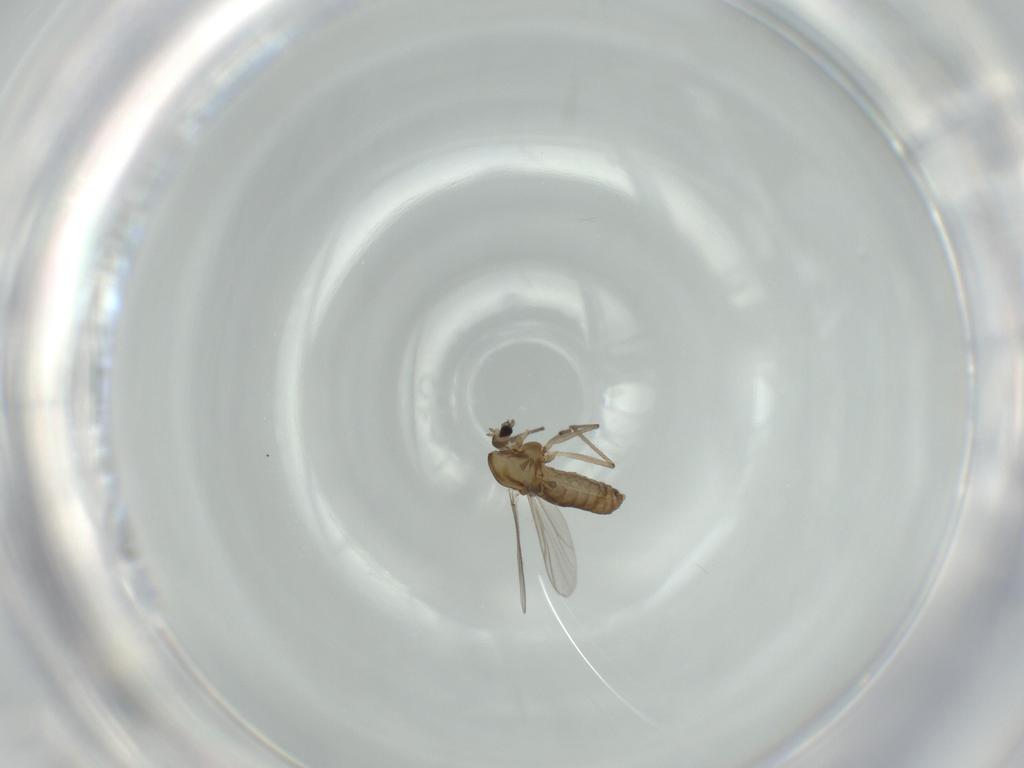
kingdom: Animalia
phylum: Arthropoda
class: Insecta
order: Diptera
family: Chironomidae
